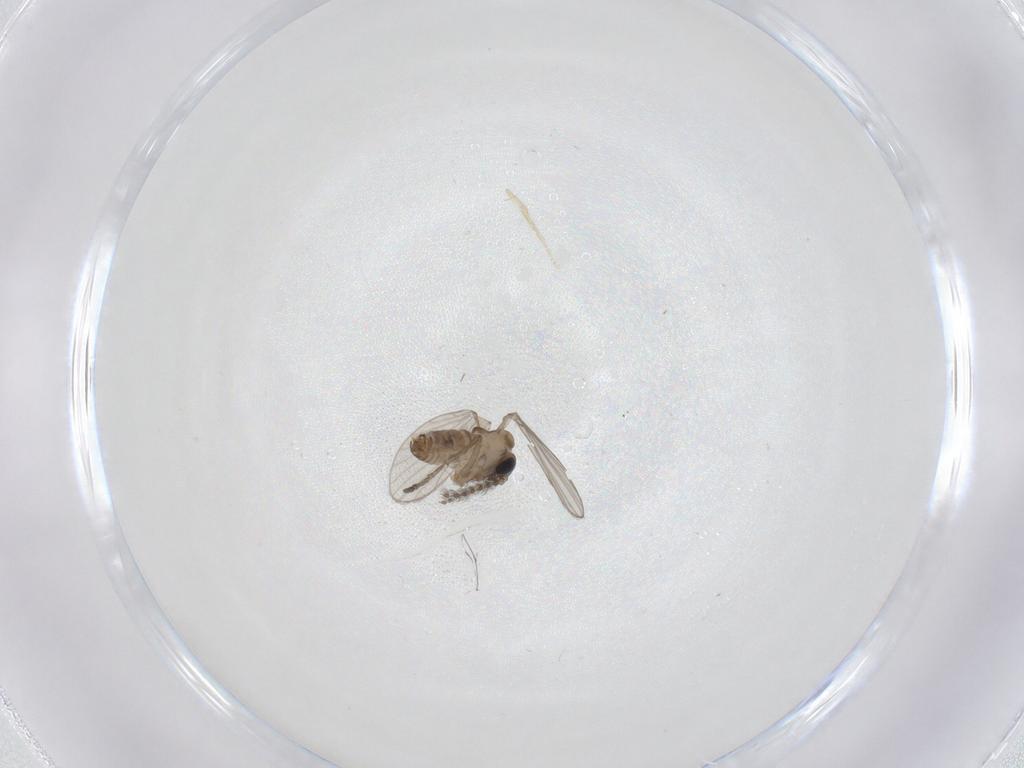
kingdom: Animalia
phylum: Arthropoda
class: Insecta
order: Diptera
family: Psychodidae
